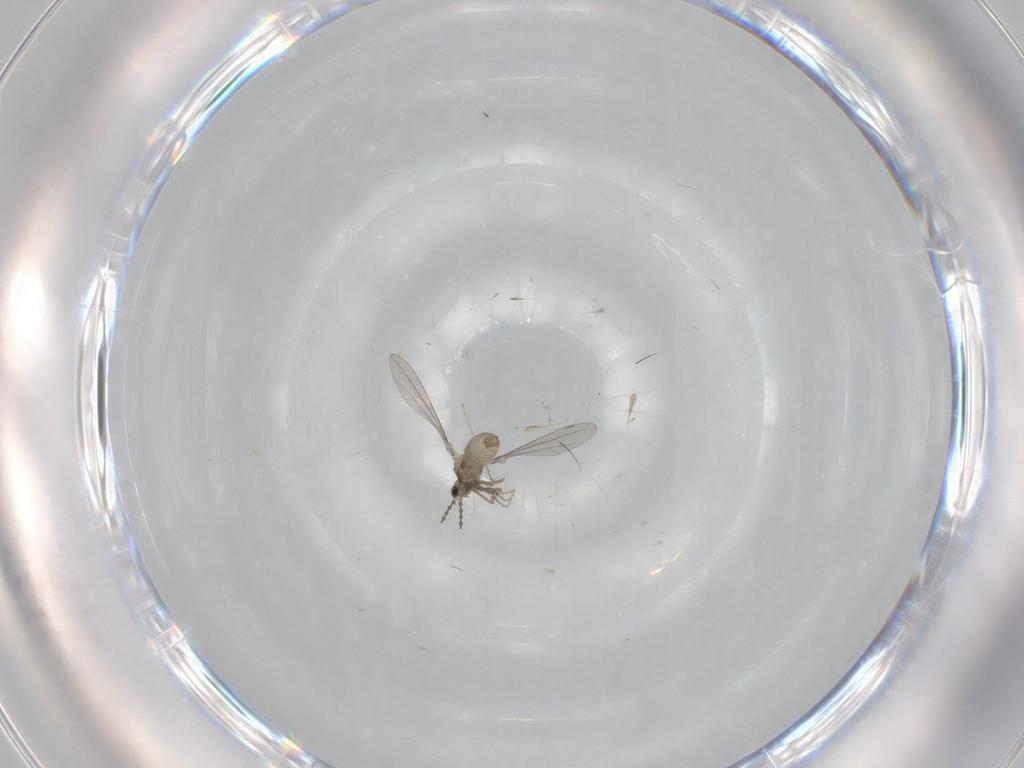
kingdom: Animalia
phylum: Arthropoda
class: Insecta
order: Diptera
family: Cecidomyiidae
